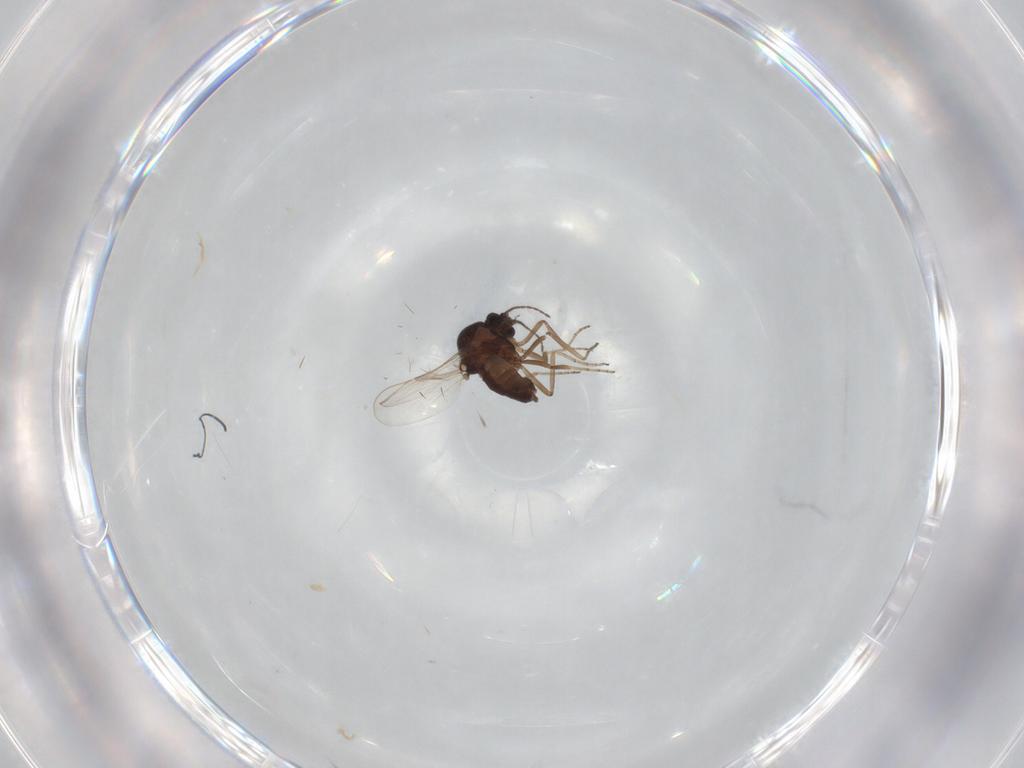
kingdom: Animalia
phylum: Arthropoda
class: Insecta
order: Diptera
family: Ceratopogonidae
